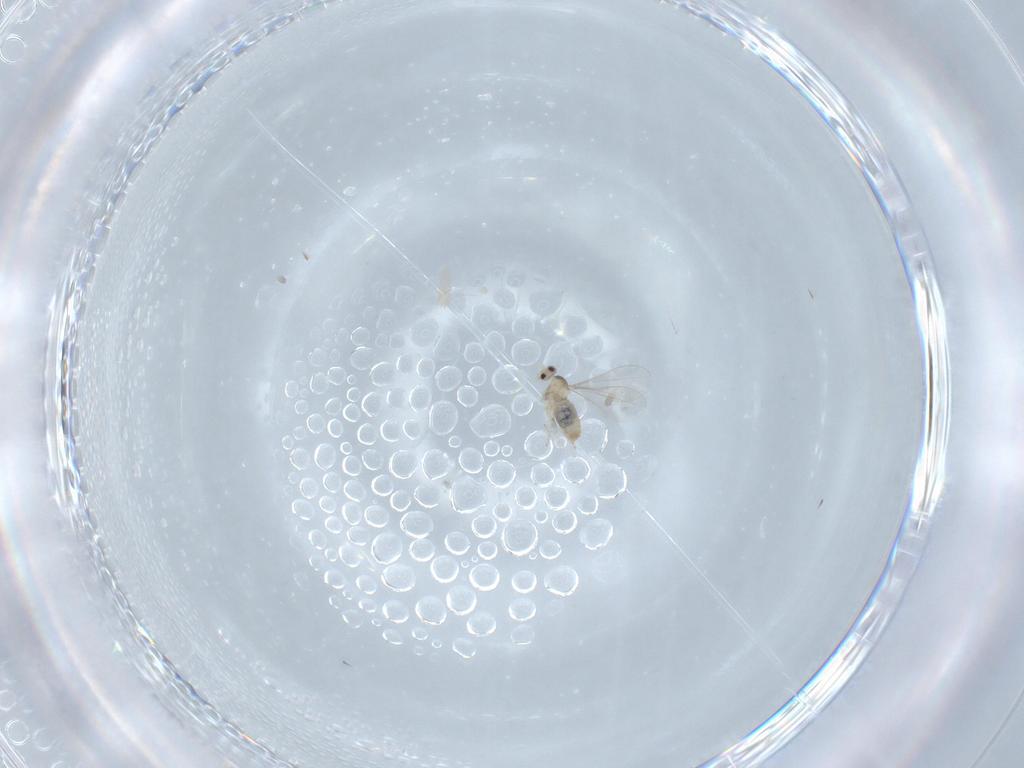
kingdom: Animalia
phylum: Arthropoda
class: Insecta
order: Diptera
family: Cecidomyiidae
